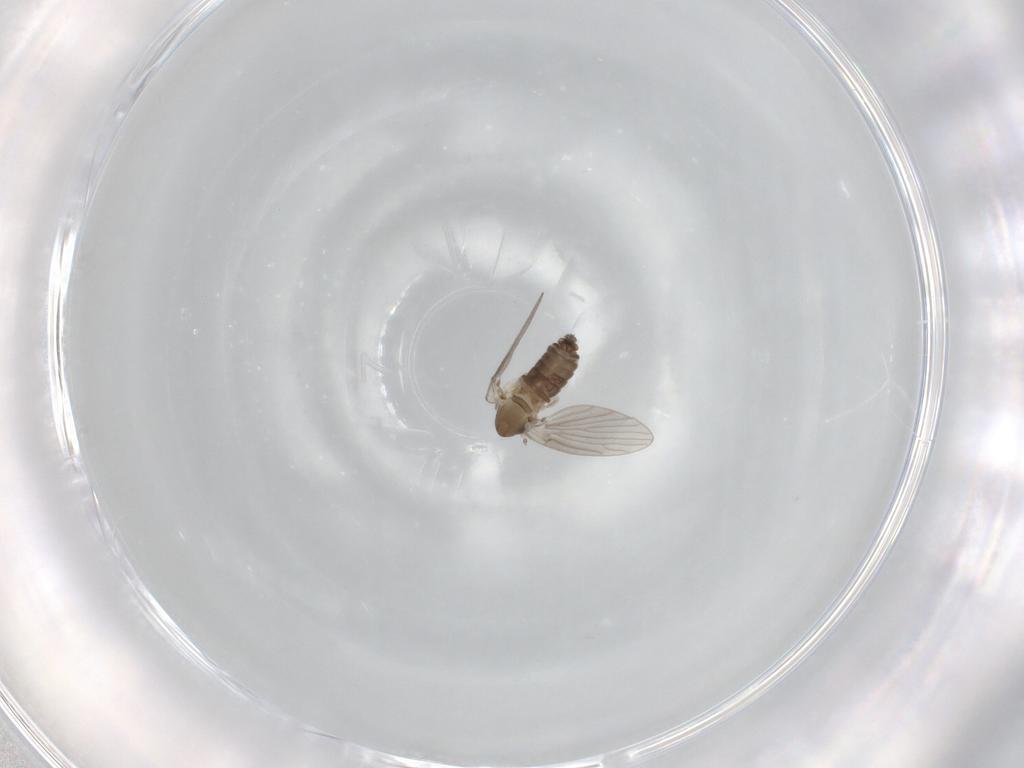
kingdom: Animalia
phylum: Arthropoda
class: Insecta
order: Diptera
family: Psychodidae
